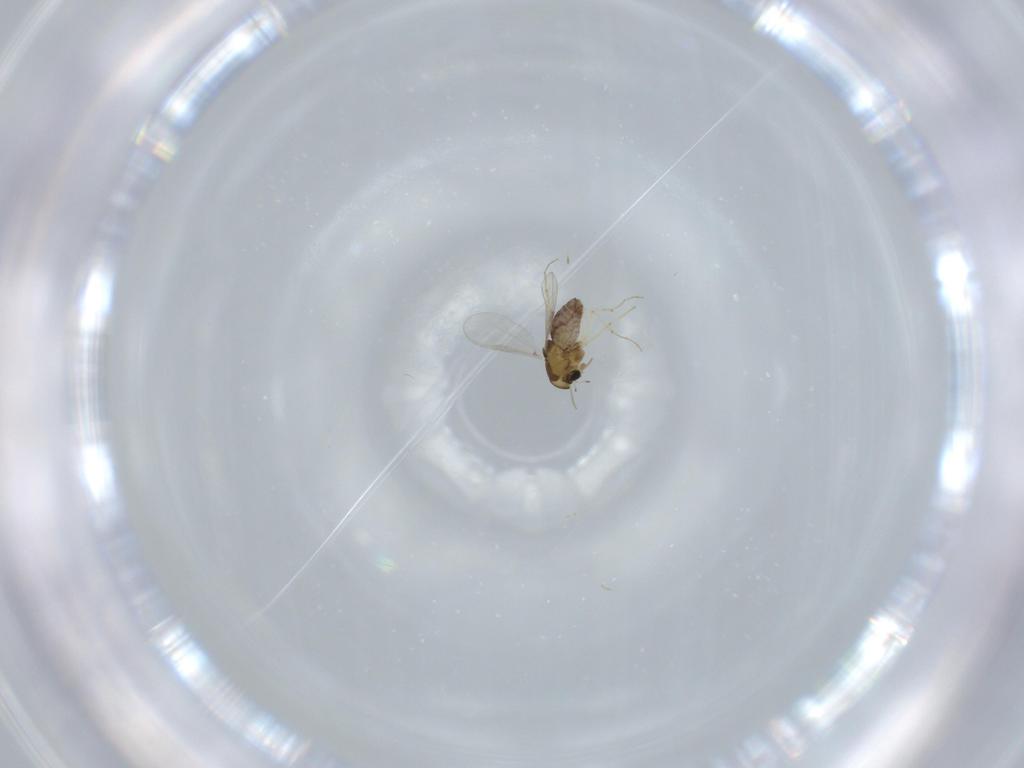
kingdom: Animalia
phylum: Arthropoda
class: Insecta
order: Diptera
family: Chironomidae
